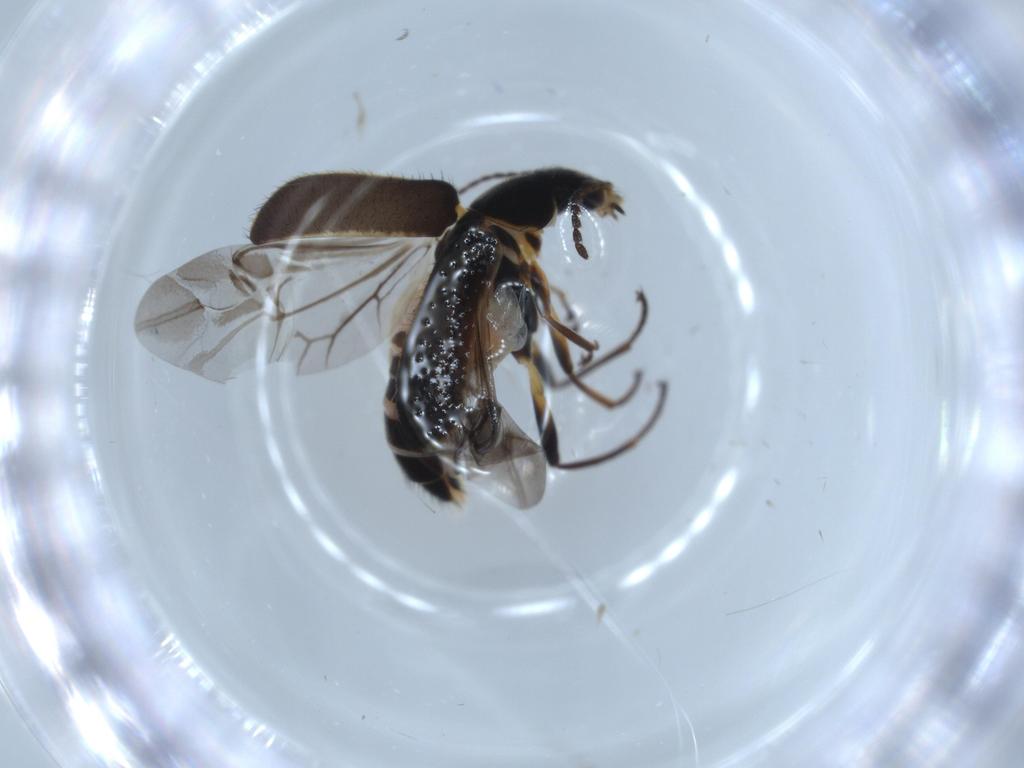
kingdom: Animalia
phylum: Arthropoda
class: Insecta
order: Coleoptera
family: Melyridae
